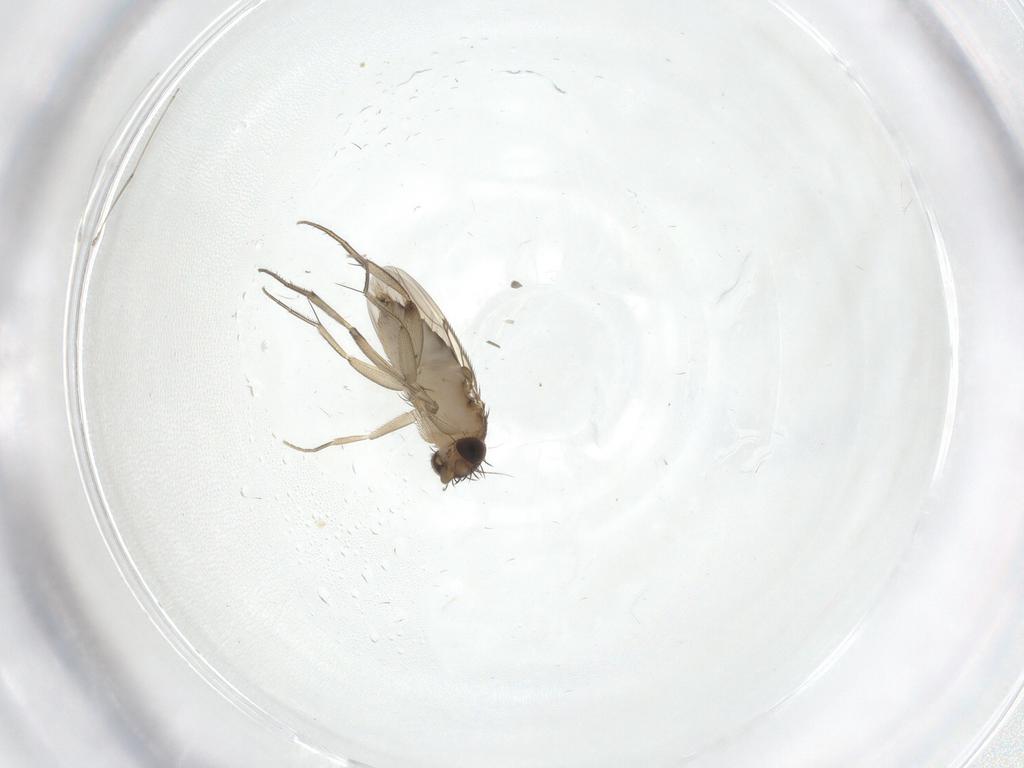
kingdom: Animalia
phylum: Arthropoda
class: Insecta
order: Diptera
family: Phoridae
